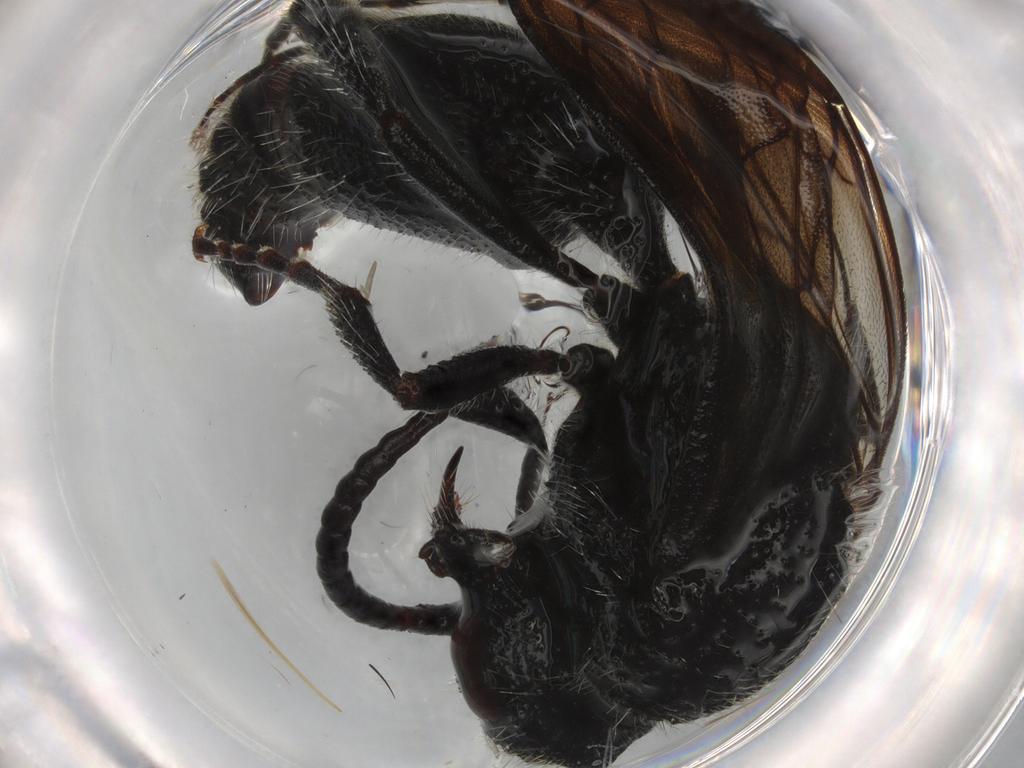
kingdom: Animalia
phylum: Arthropoda
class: Insecta
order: Hymenoptera
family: Mutillidae
